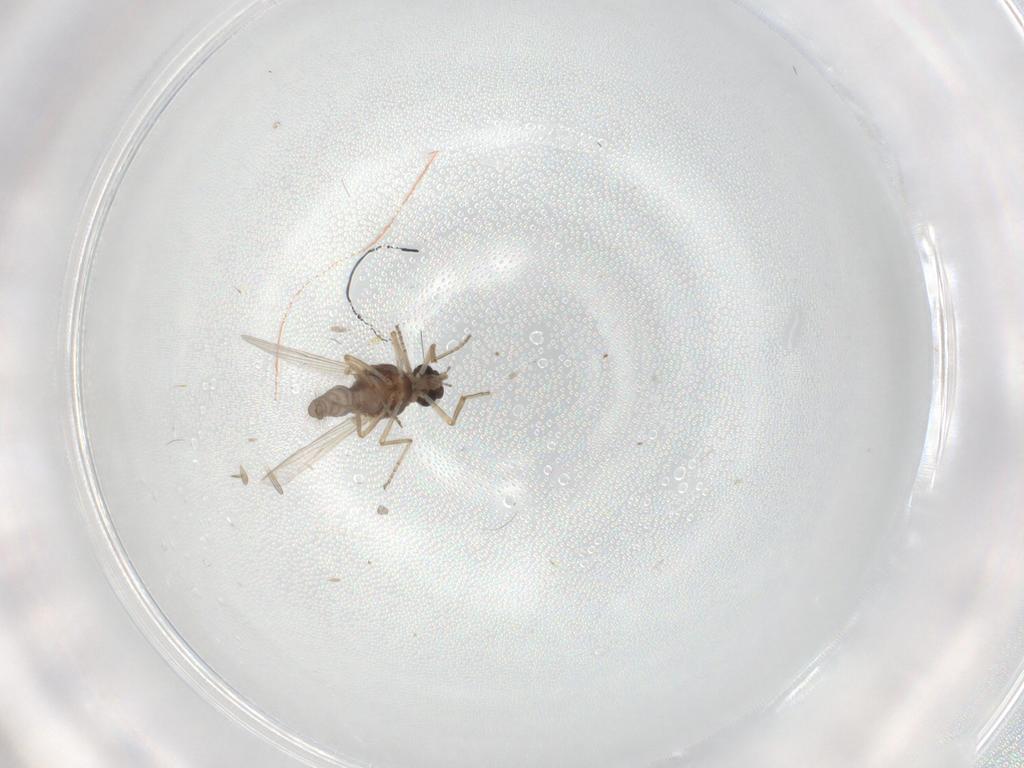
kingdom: Animalia
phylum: Arthropoda
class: Insecta
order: Diptera
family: Ceratopogonidae
